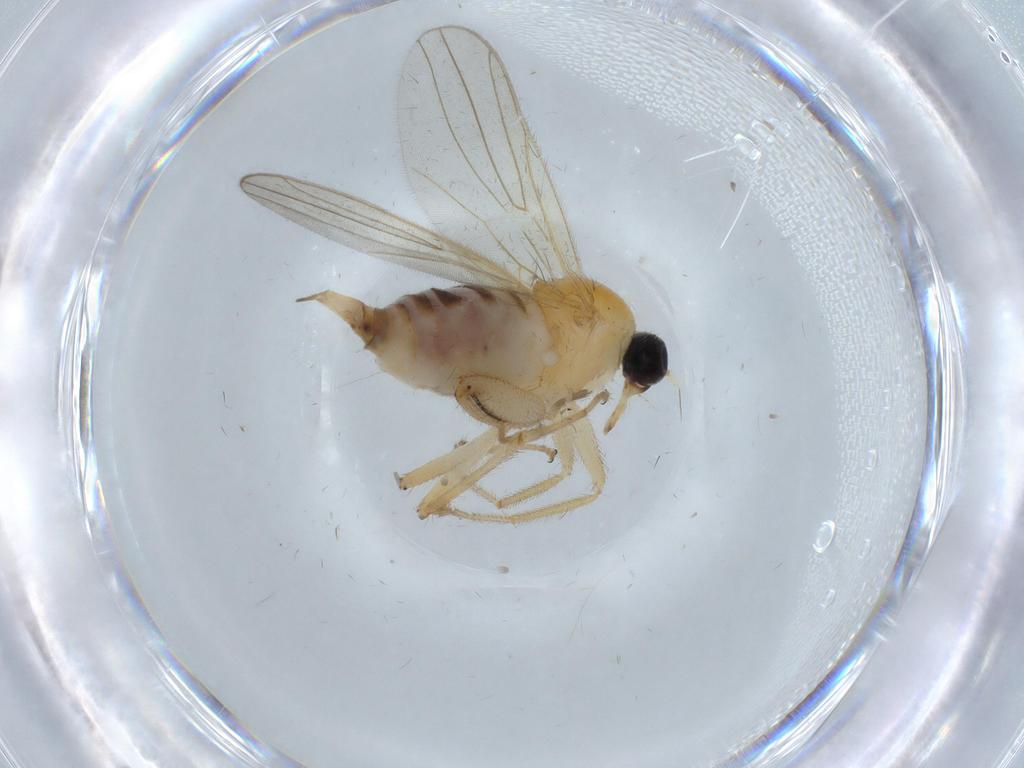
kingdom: Animalia
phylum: Arthropoda
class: Insecta
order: Diptera
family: Hybotidae
